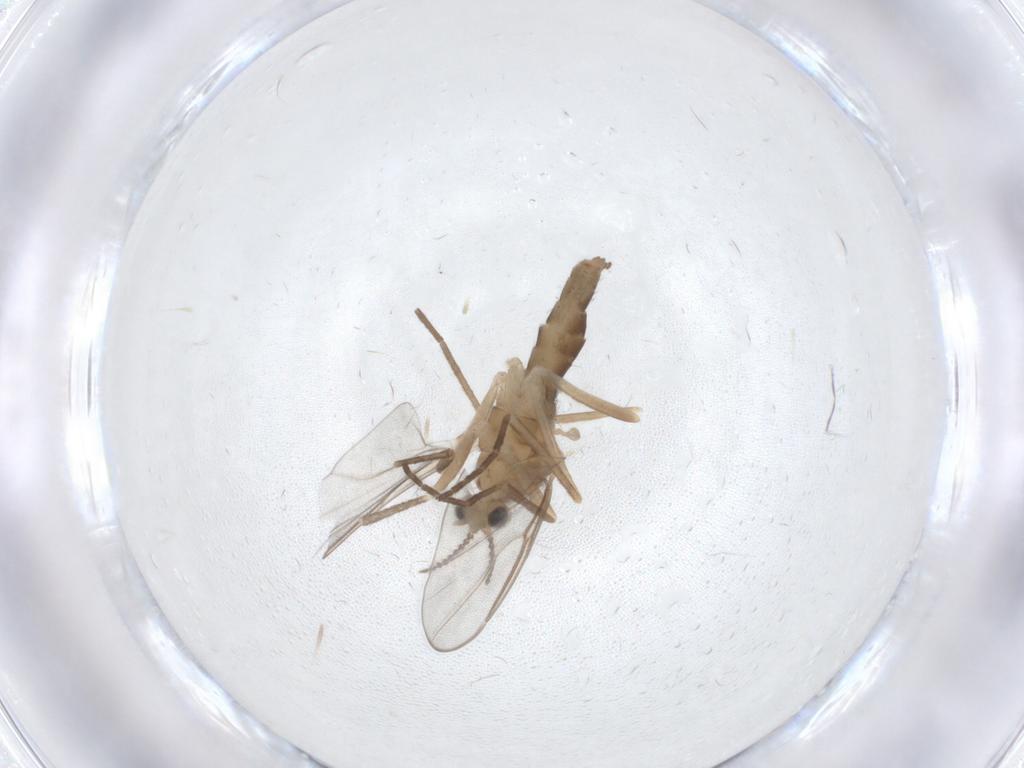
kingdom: Animalia
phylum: Arthropoda
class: Insecta
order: Diptera
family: Cecidomyiidae
